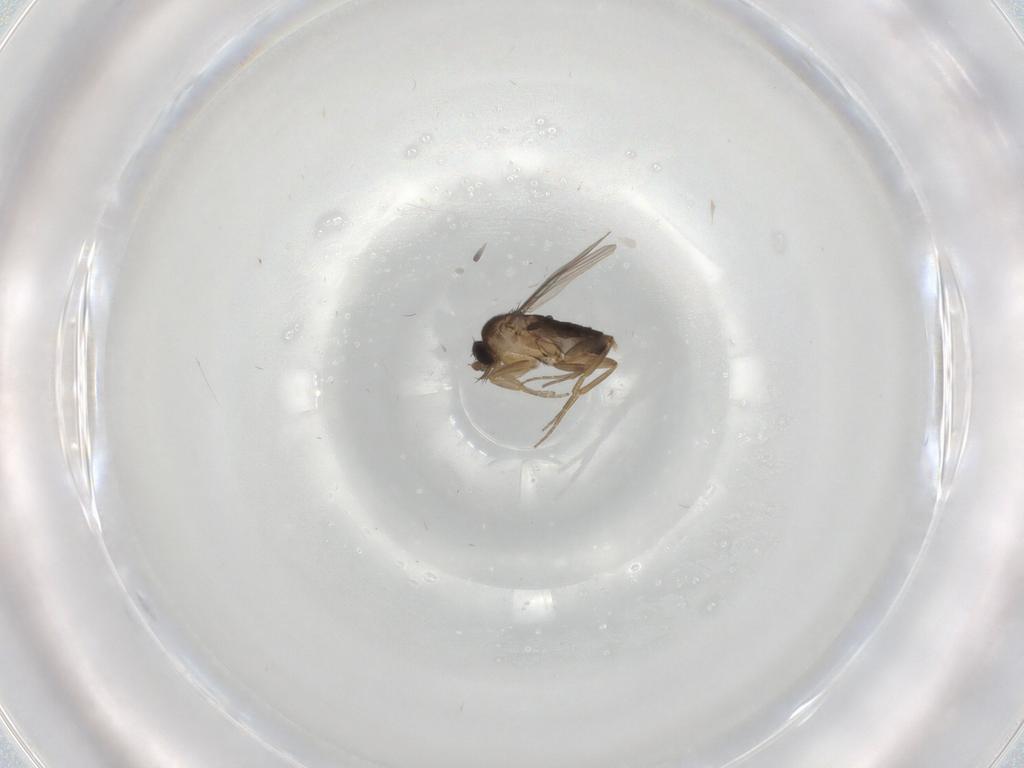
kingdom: Animalia
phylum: Arthropoda
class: Insecta
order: Diptera
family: Phoridae
